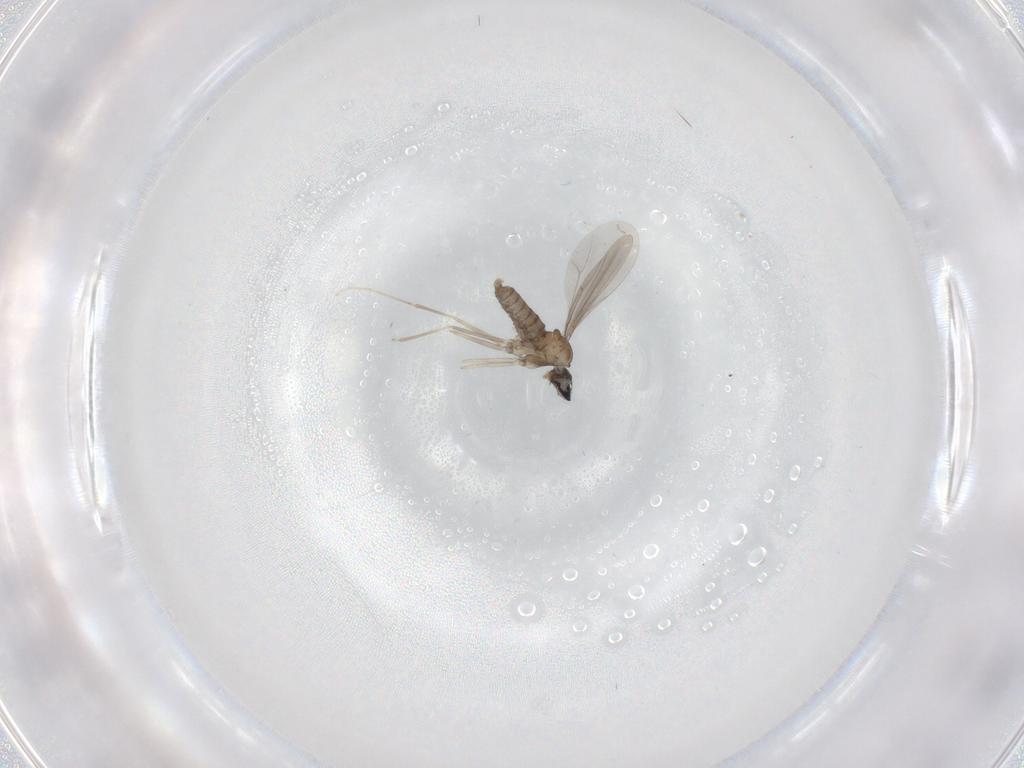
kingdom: Animalia
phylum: Arthropoda
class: Insecta
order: Diptera
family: Cecidomyiidae
